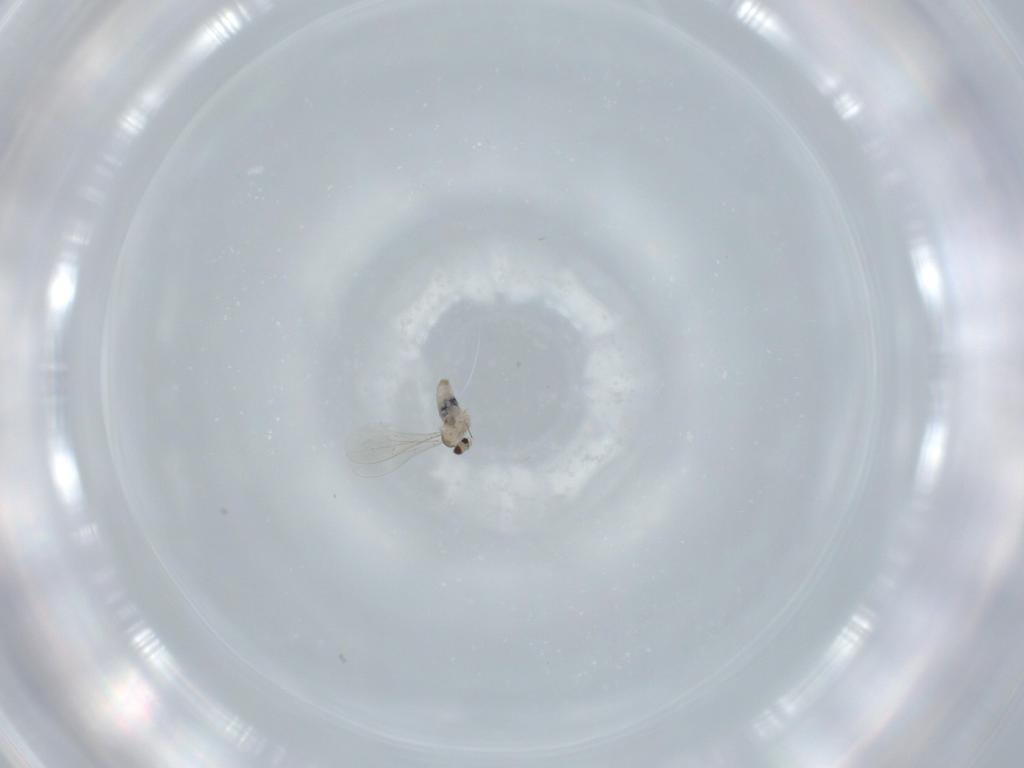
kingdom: Animalia
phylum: Arthropoda
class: Insecta
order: Diptera
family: Cecidomyiidae
